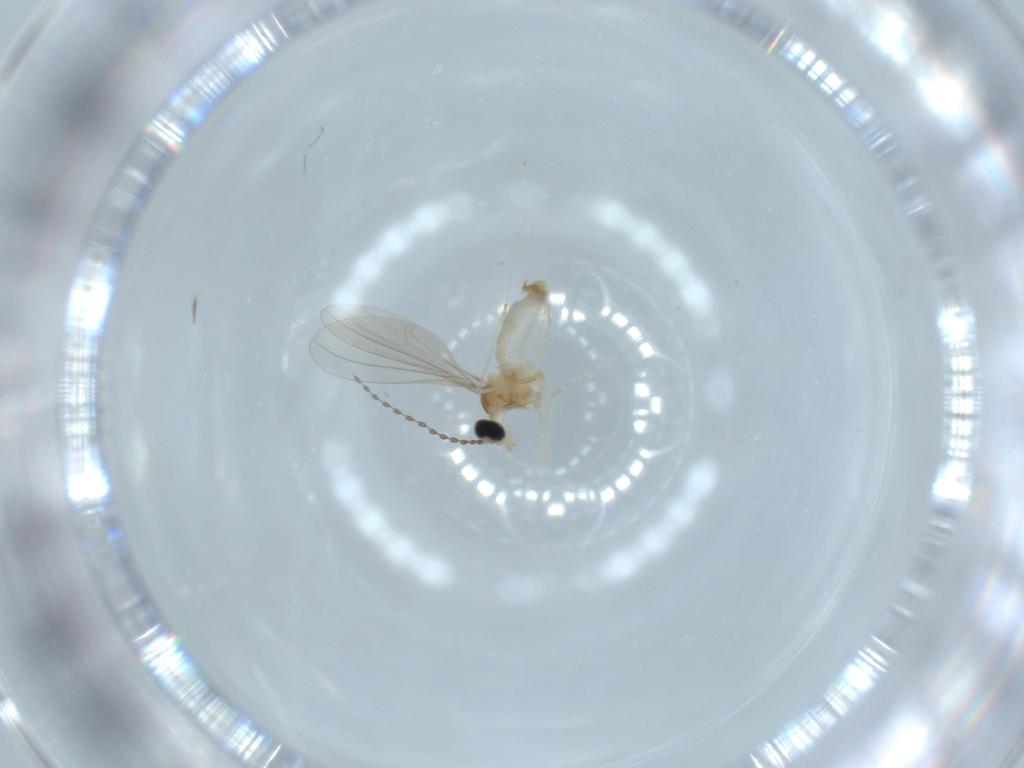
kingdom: Animalia
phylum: Arthropoda
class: Insecta
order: Diptera
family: Cecidomyiidae
